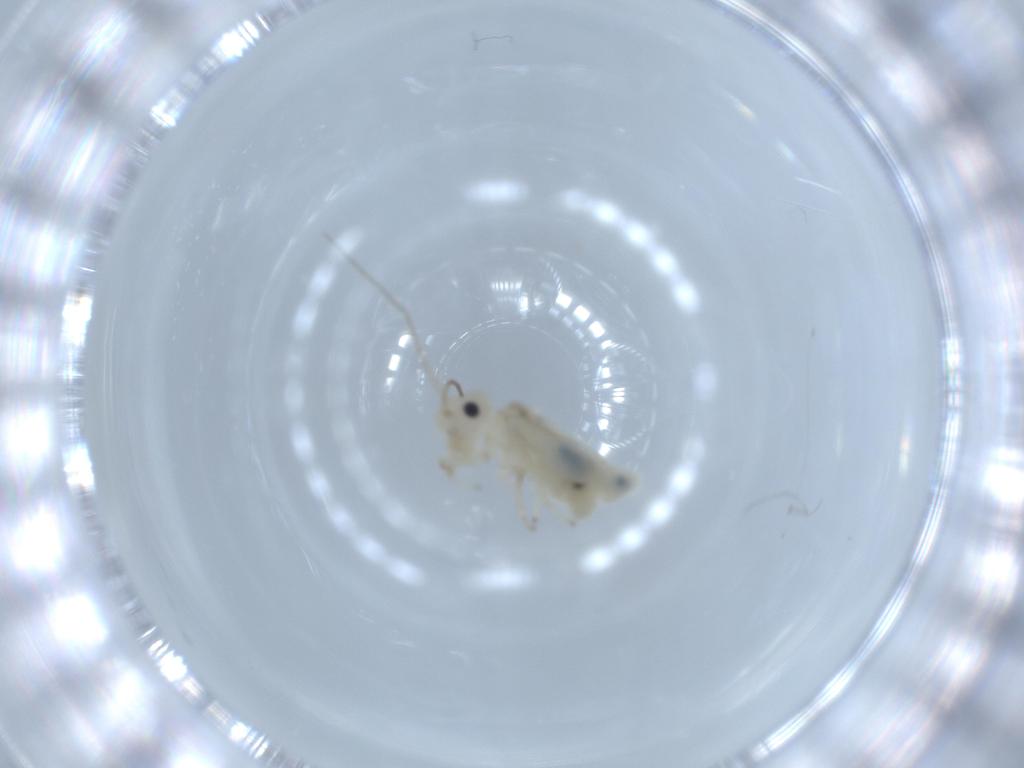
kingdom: Animalia
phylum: Arthropoda
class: Insecta
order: Psocodea
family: Caeciliusidae
